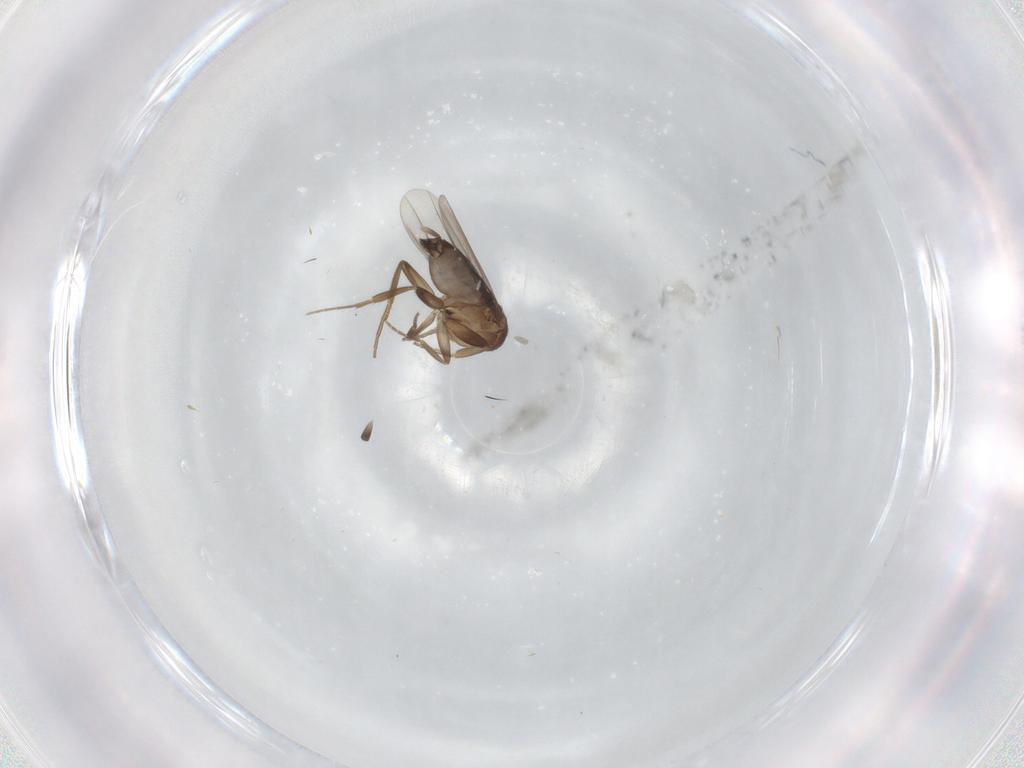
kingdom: Animalia
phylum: Arthropoda
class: Insecta
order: Diptera
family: Phoridae
